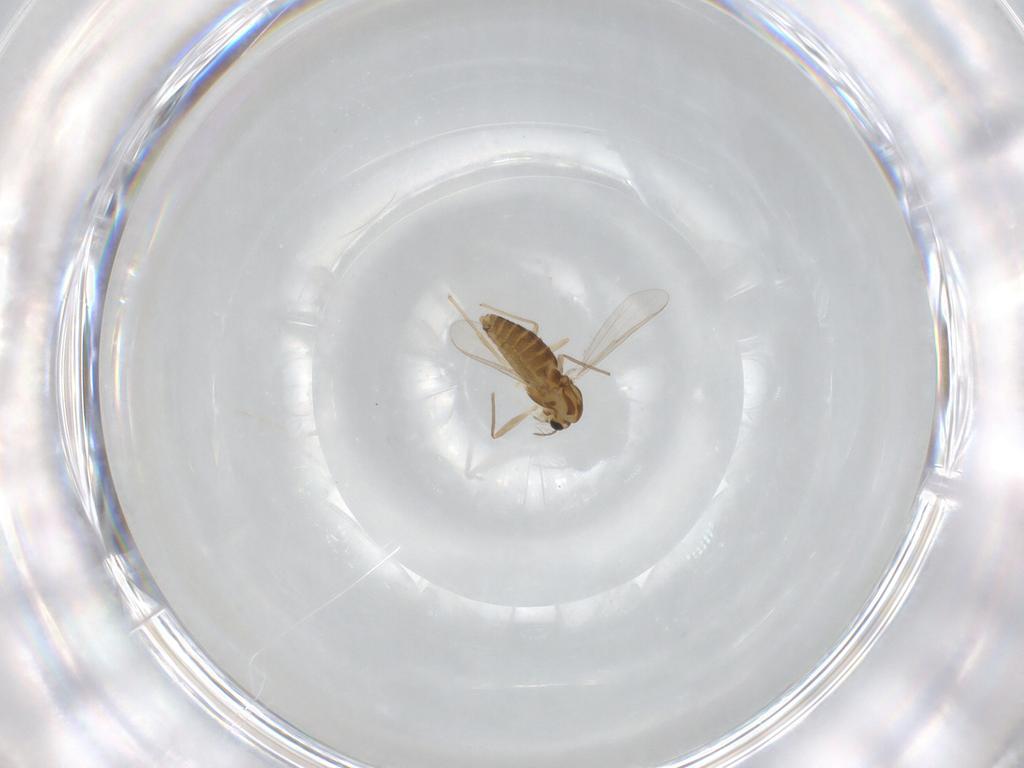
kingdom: Animalia
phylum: Arthropoda
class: Insecta
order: Diptera
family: Chironomidae
